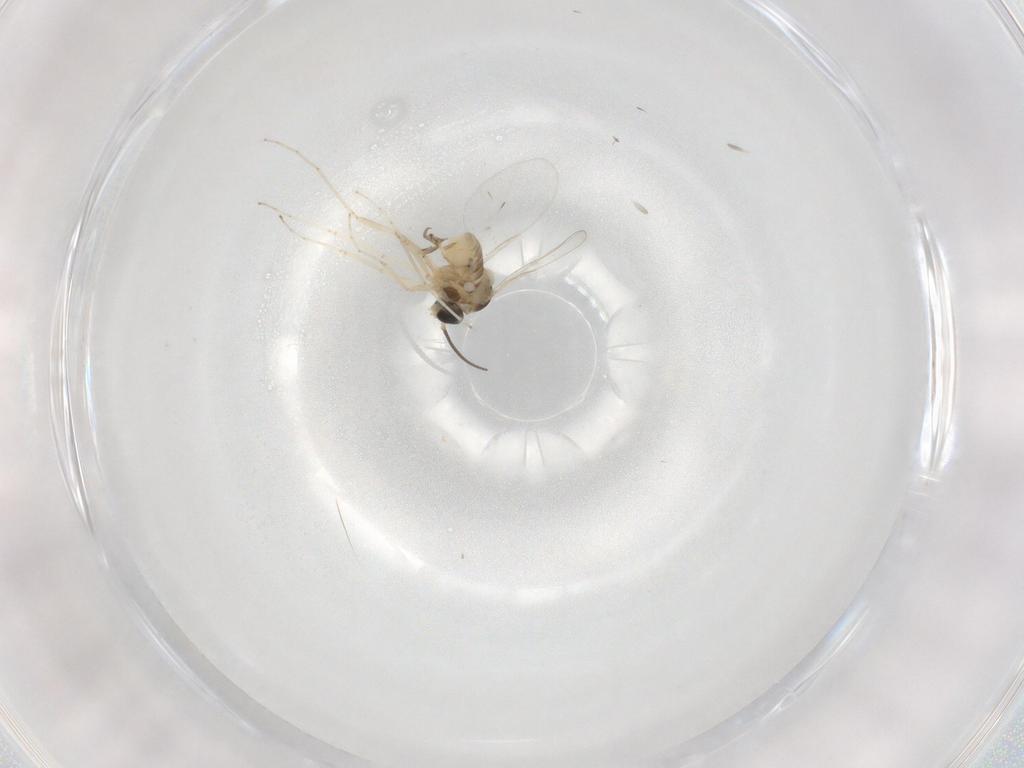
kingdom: Animalia
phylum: Arthropoda
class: Insecta
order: Diptera
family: Cecidomyiidae
